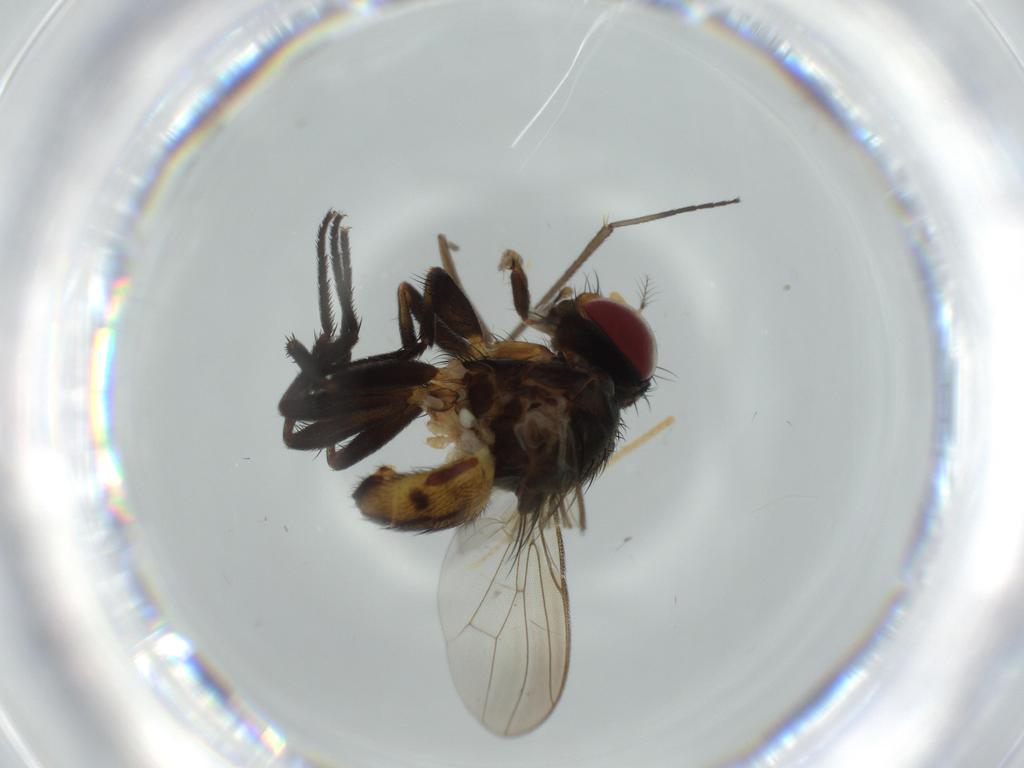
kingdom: Animalia
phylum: Arthropoda
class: Insecta
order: Diptera
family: Anthomyiidae
